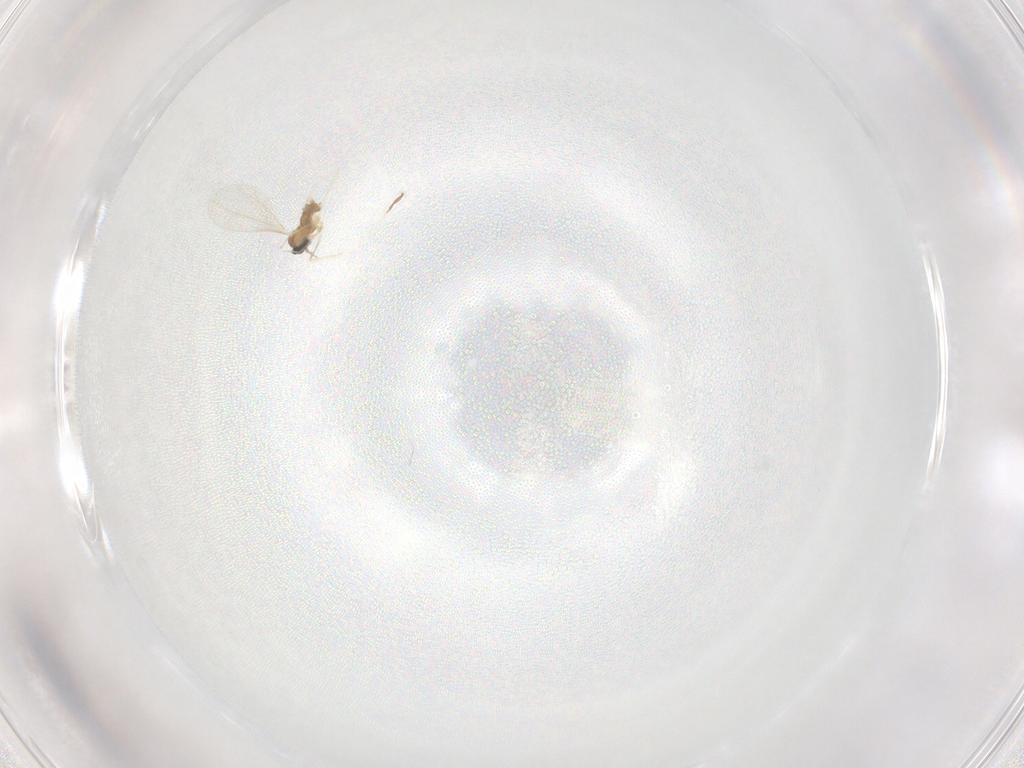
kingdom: Animalia
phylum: Arthropoda
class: Insecta
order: Diptera
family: Cecidomyiidae
